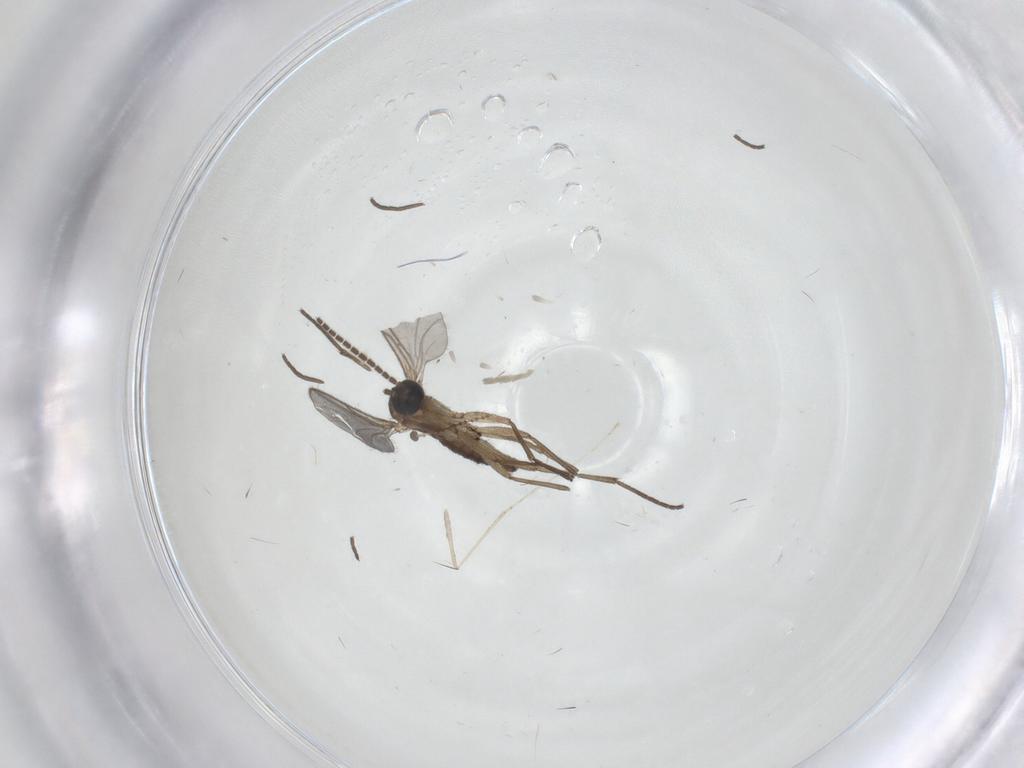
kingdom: Animalia
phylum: Arthropoda
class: Insecta
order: Diptera
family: Sciaridae
